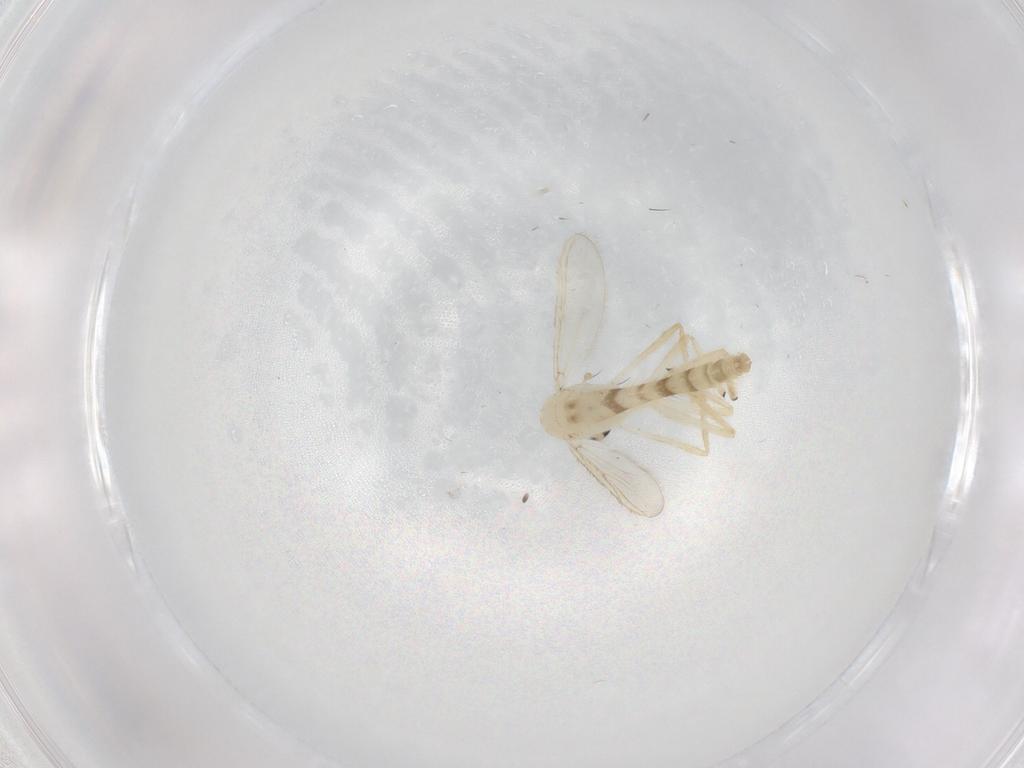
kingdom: Animalia
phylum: Arthropoda
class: Insecta
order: Diptera
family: Chironomidae
